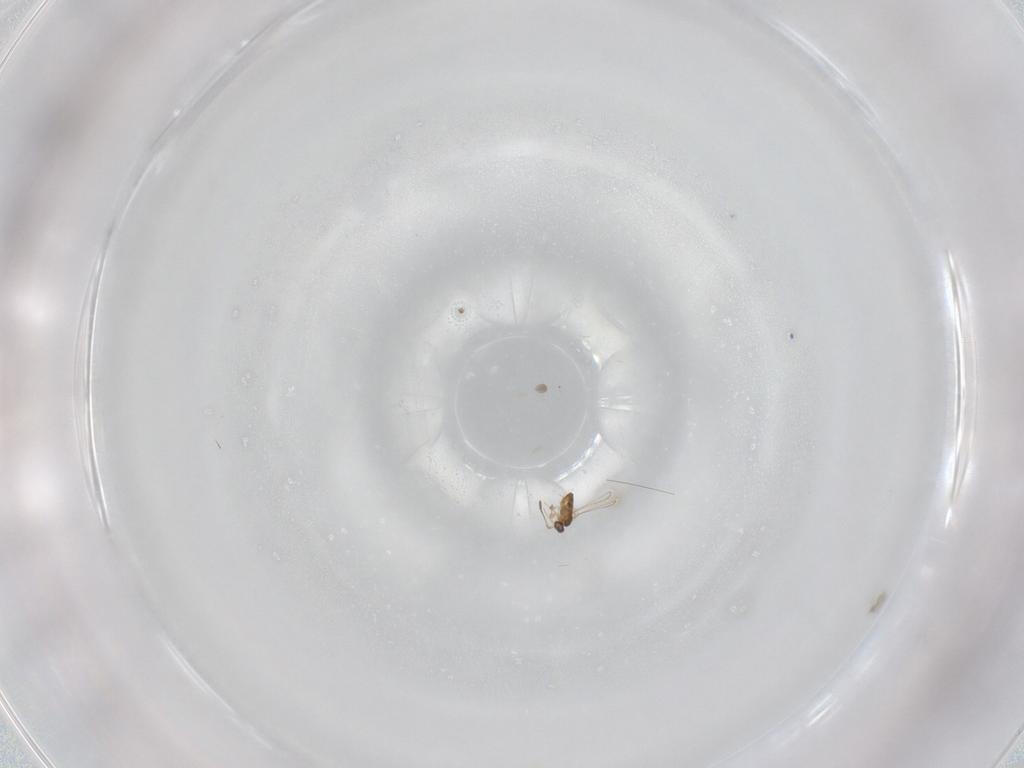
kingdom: Animalia
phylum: Arthropoda
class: Insecta
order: Hymenoptera
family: Mymaridae
